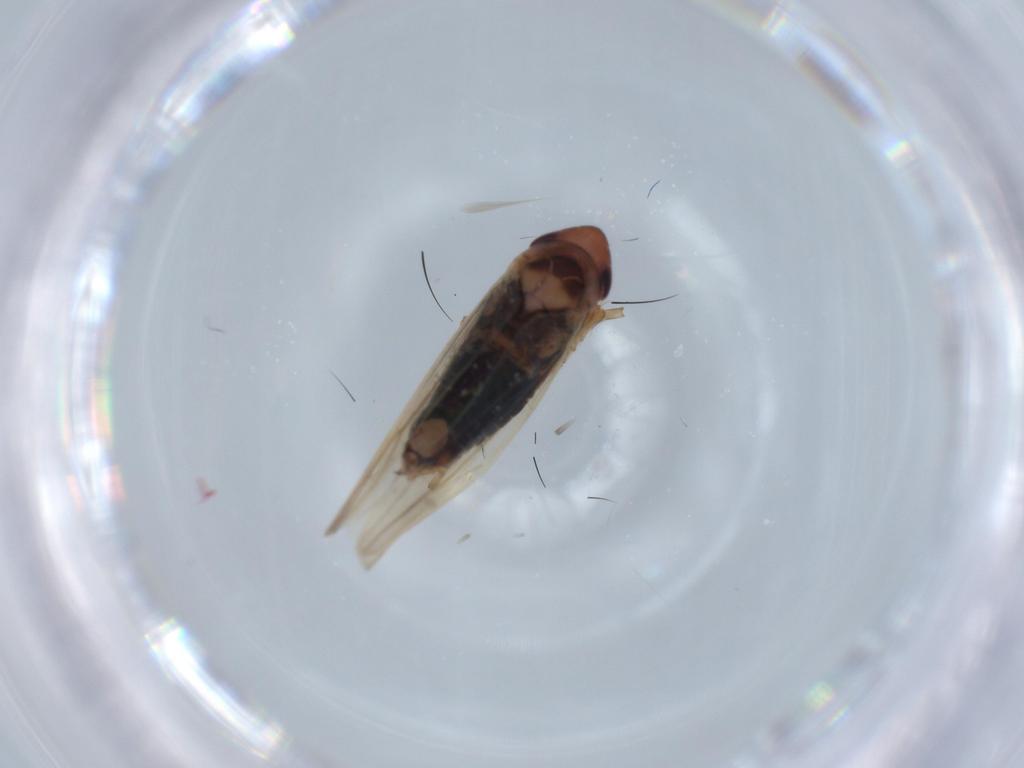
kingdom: Animalia
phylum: Arthropoda
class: Insecta
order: Hemiptera
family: Cicadellidae
